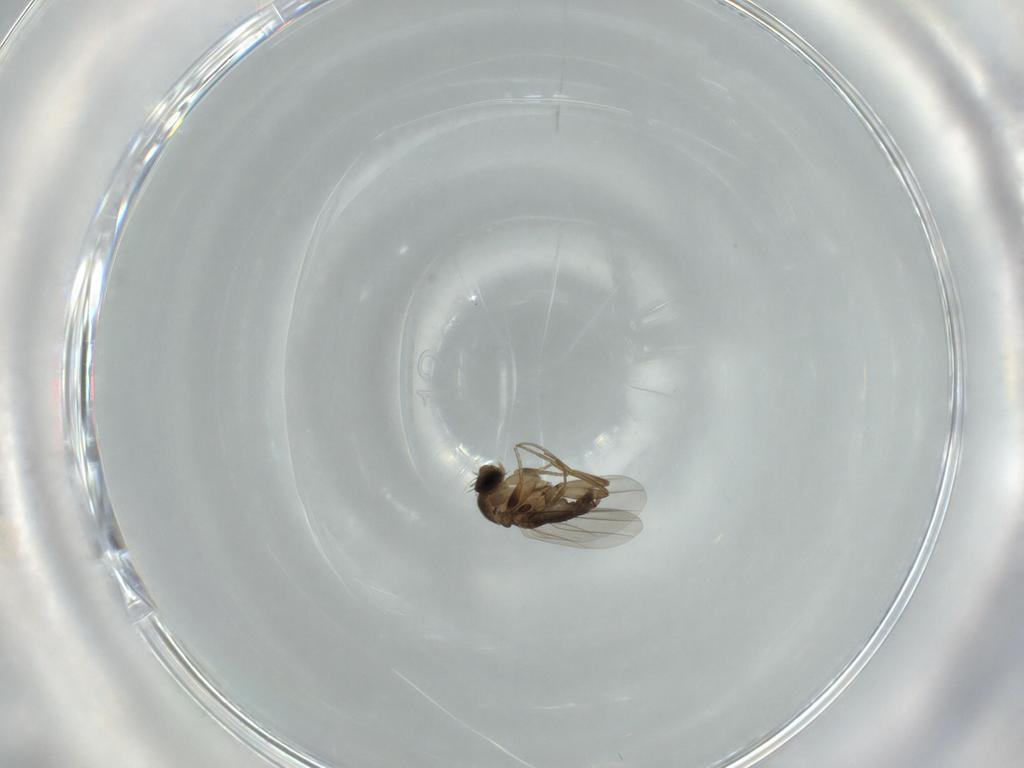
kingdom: Animalia
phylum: Arthropoda
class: Insecta
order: Diptera
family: Phoridae
